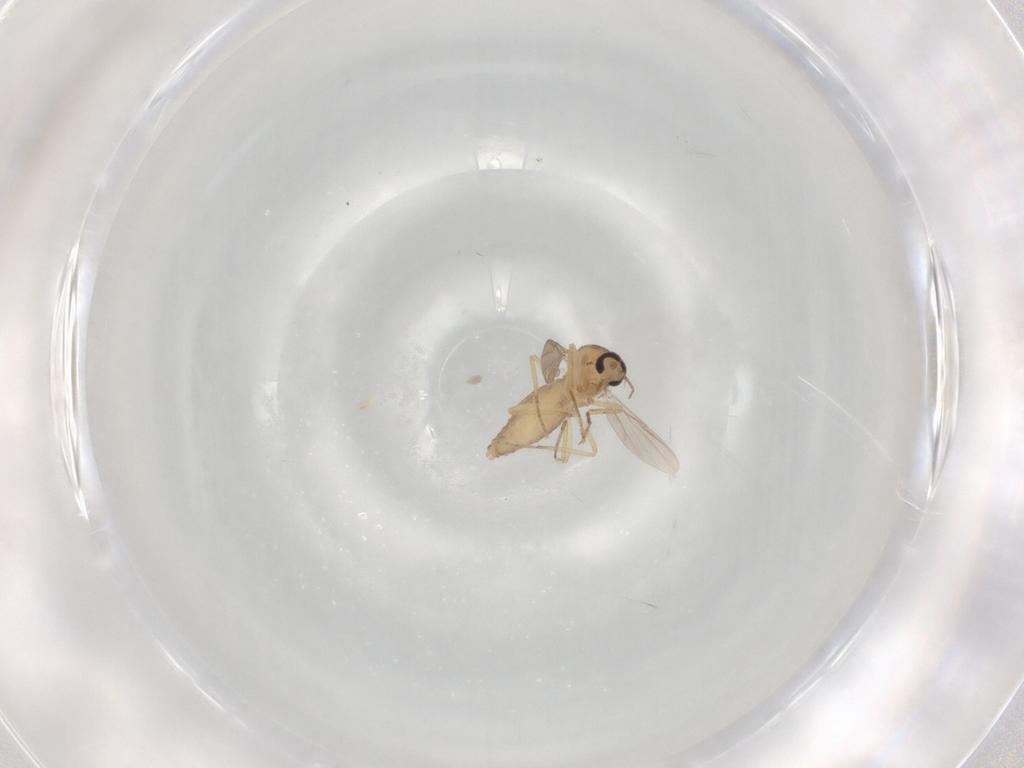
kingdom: Animalia
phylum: Arthropoda
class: Insecta
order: Diptera
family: Ceratopogonidae
